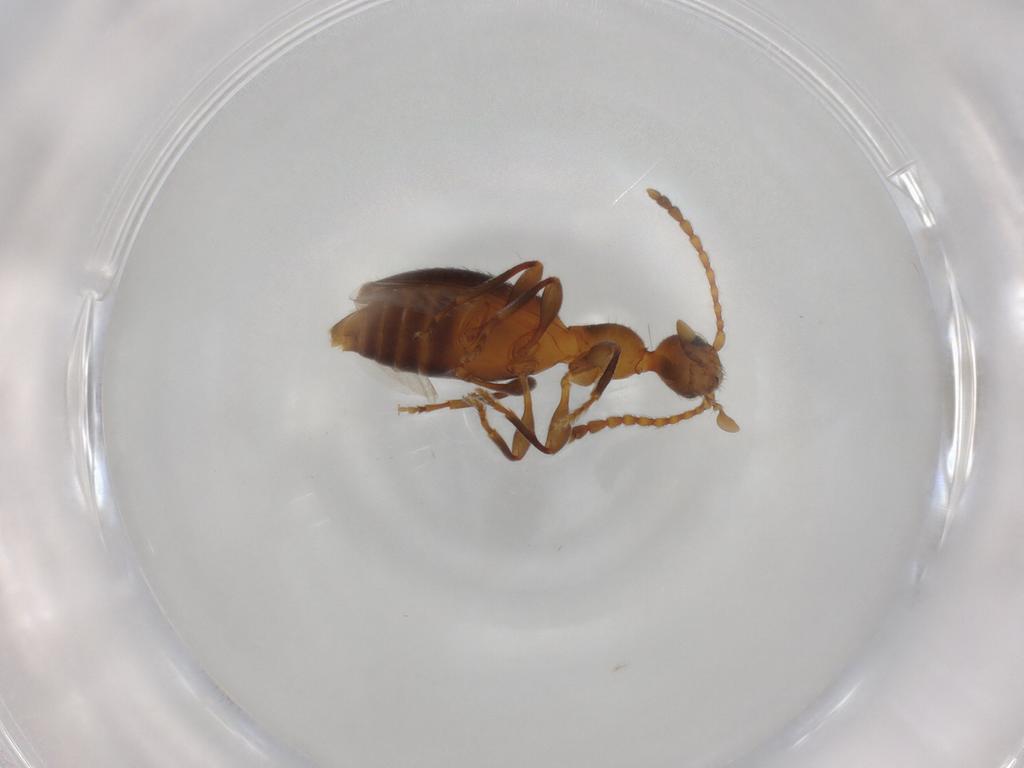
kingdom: Animalia
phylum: Arthropoda
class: Insecta
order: Coleoptera
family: Anthicidae
